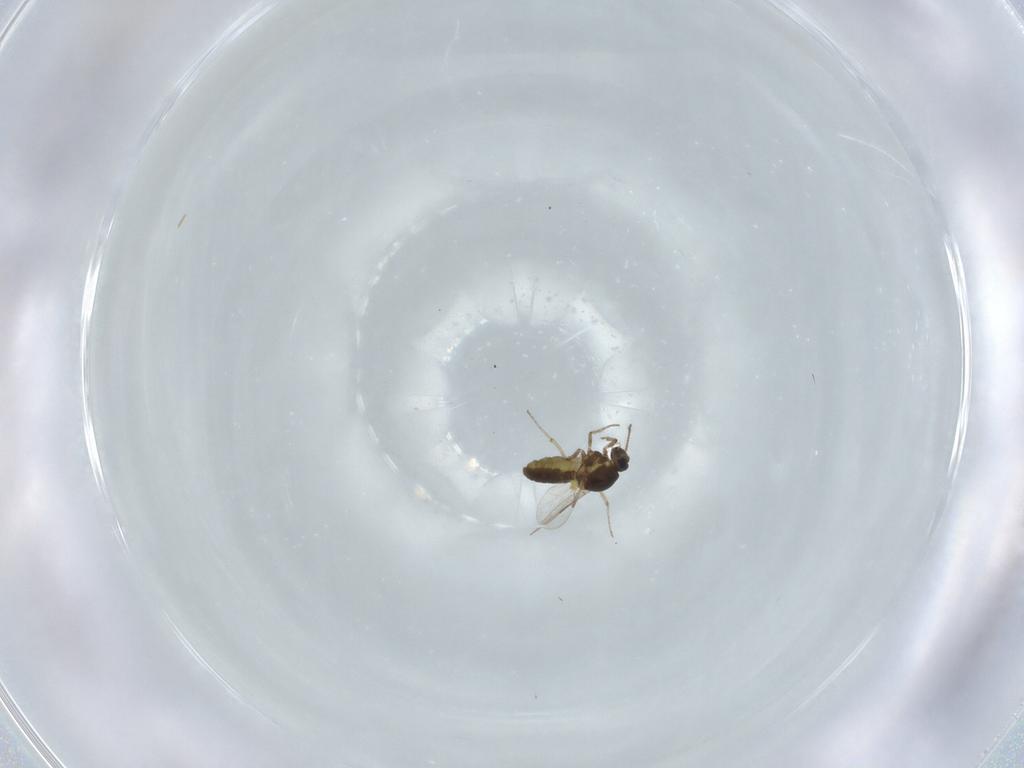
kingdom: Animalia
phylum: Arthropoda
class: Insecta
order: Diptera
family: Ceratopogonidae
